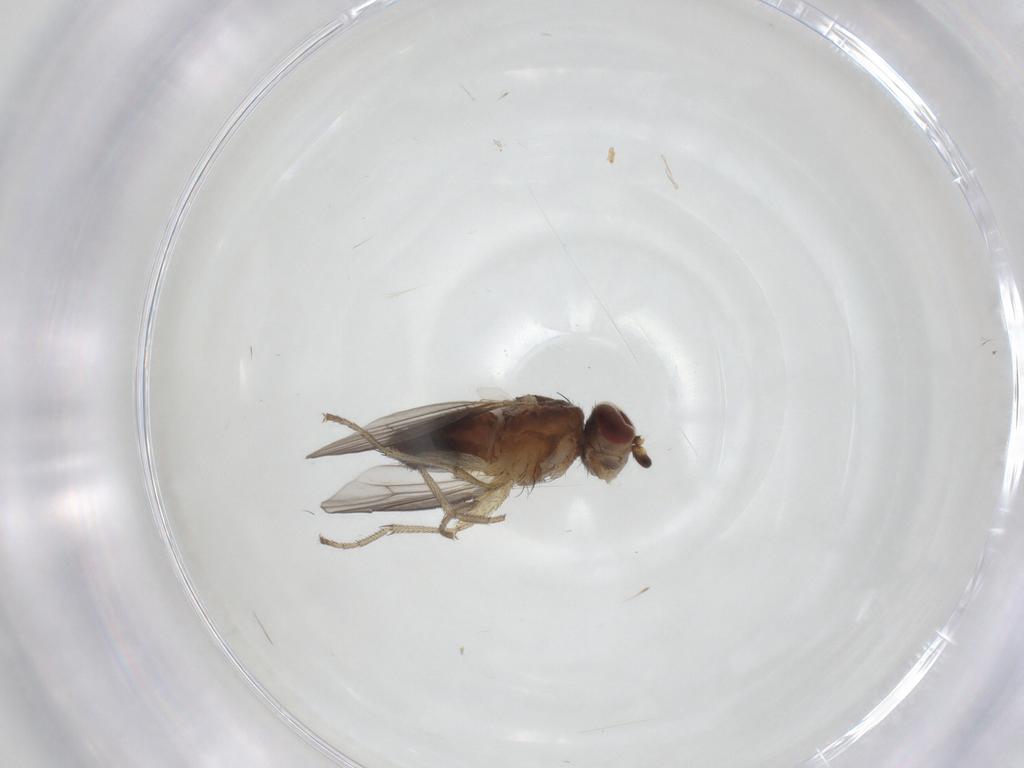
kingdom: Animalia
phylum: Arthropoda
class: Insecta
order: Diptera
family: Heleomyzidae
